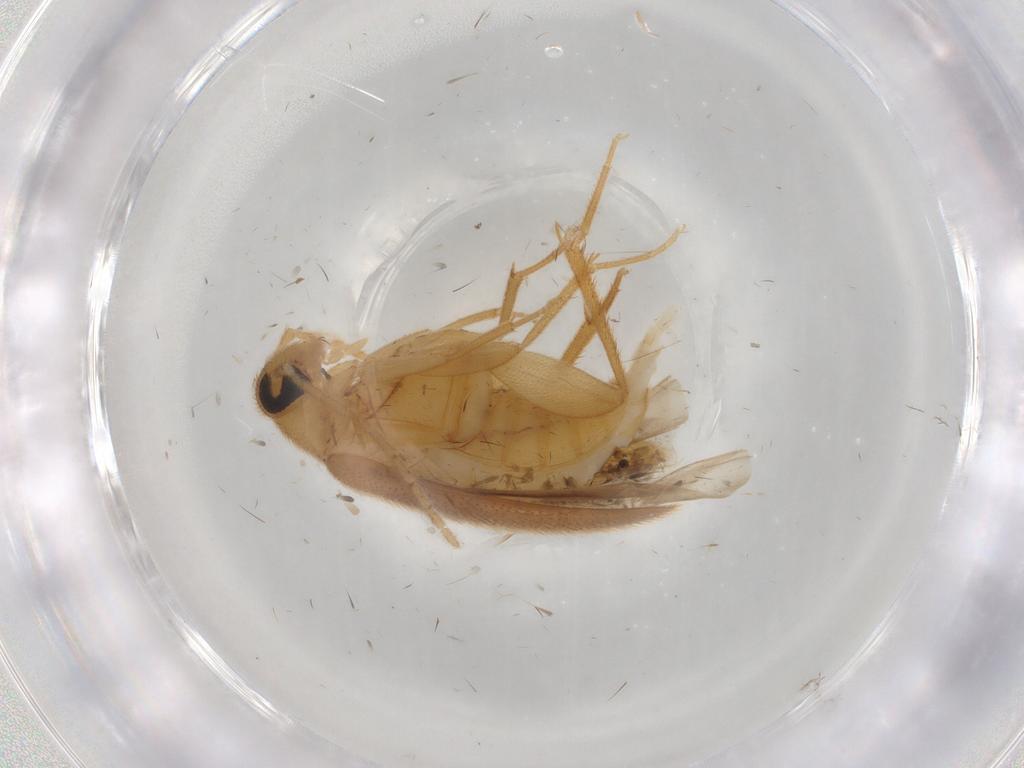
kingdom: Animalia
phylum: Arthropoda
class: Insecta
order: Coleoptera
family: Scraptiidae
